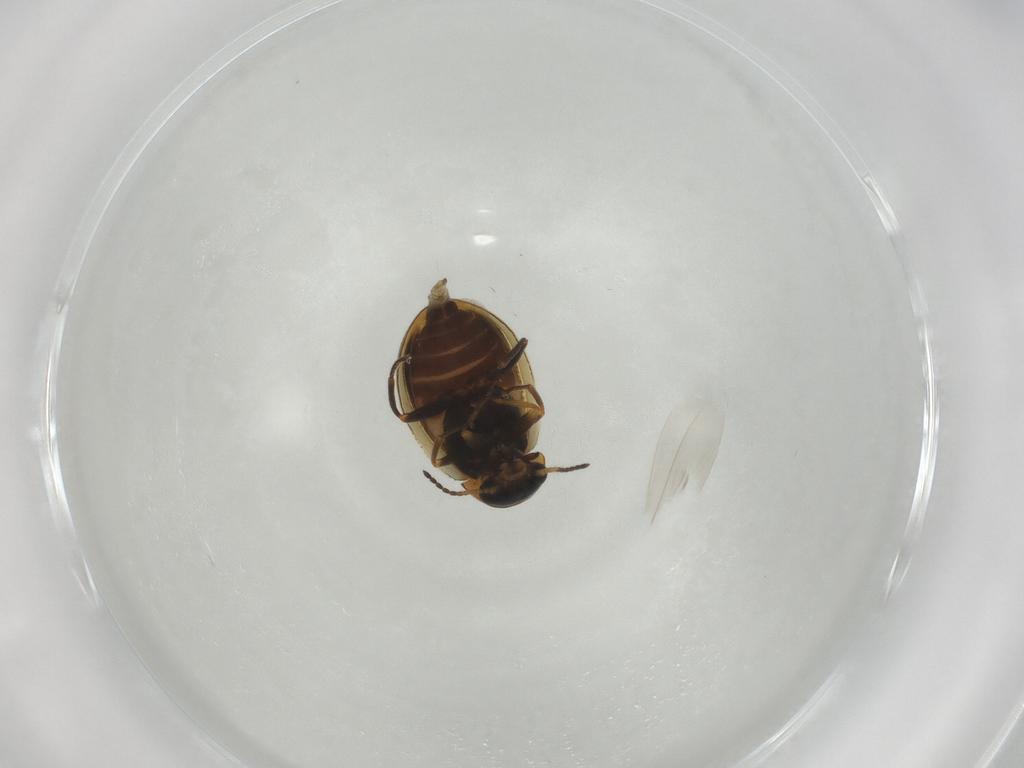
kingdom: Animalia
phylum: Arthropoda
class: Insecta
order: Coleoptera
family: Melyridae
